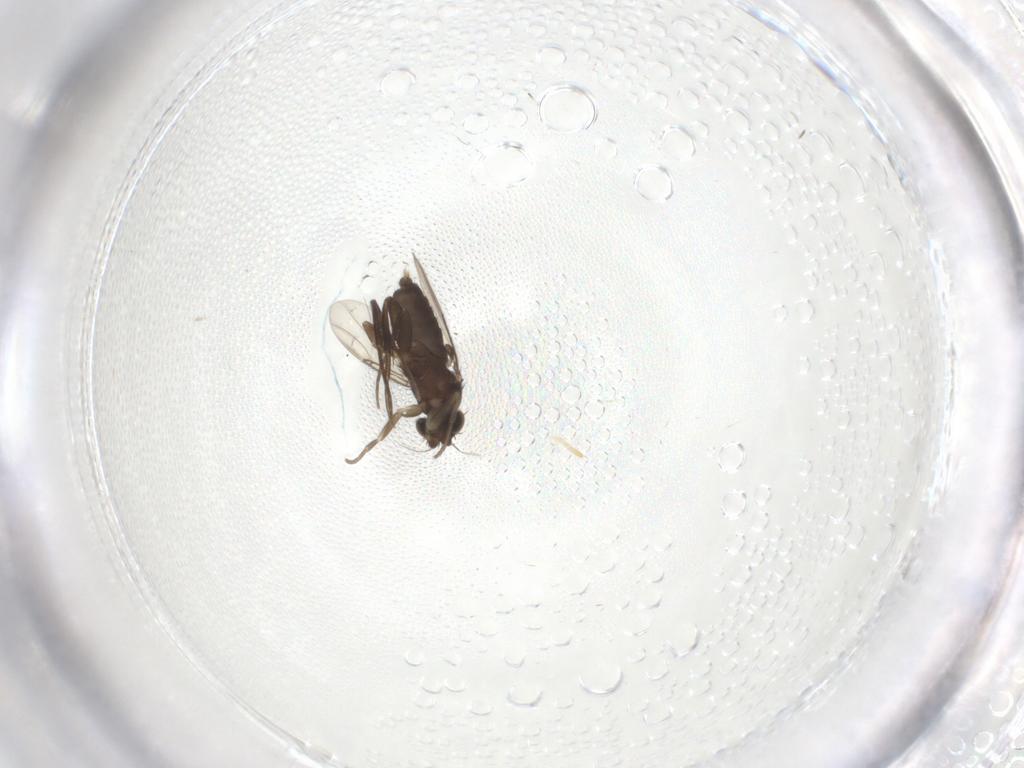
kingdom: Animalia
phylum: Arthropoda
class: Insecta
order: Diptera
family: Phoridae
